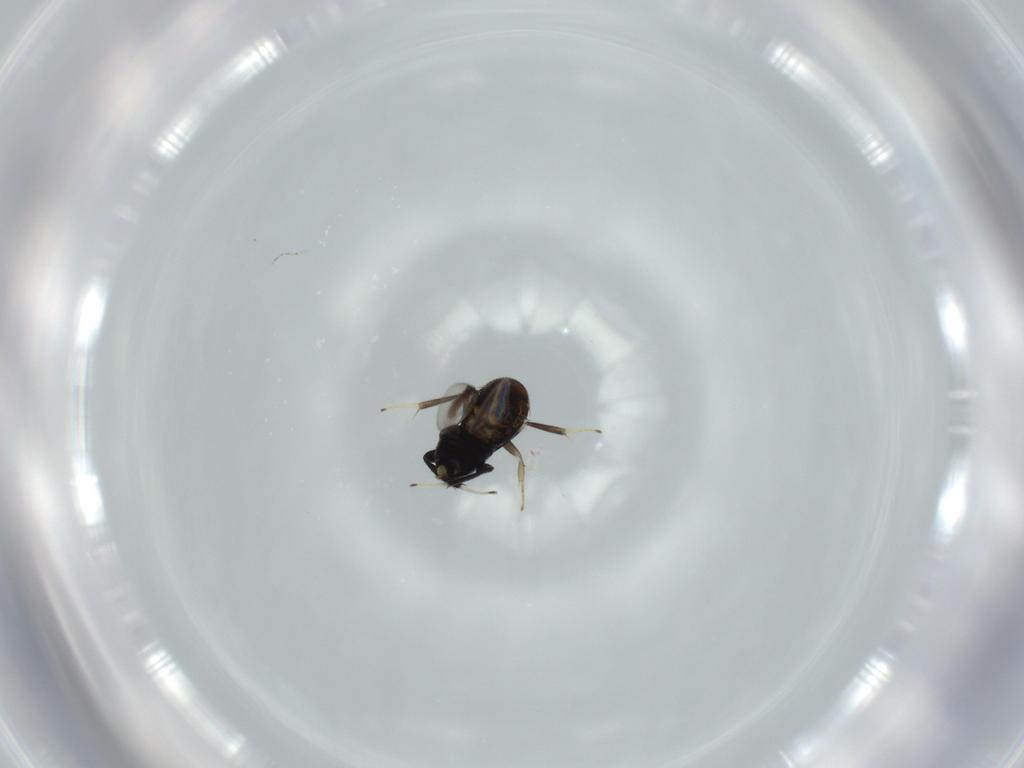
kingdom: Animalia
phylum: Arthropoda
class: Insecta
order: Hymenoptera
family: Aphelinidae
